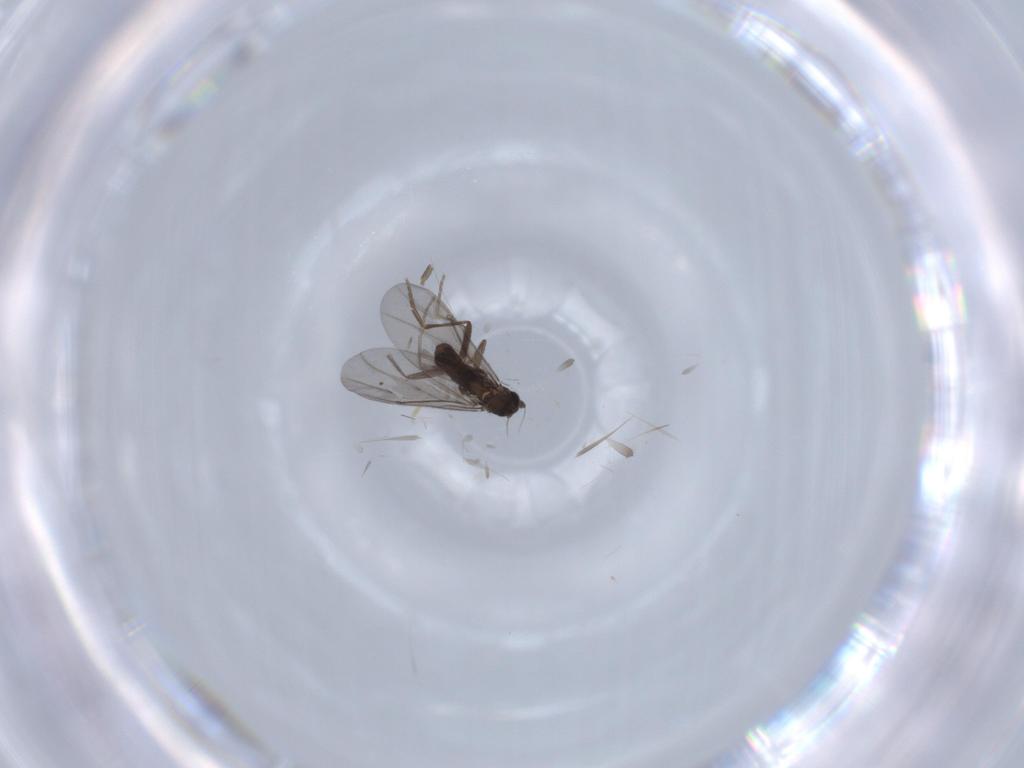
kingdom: Animalia
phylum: Arthropoda
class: Insecta
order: Diptera
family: Phoridae
